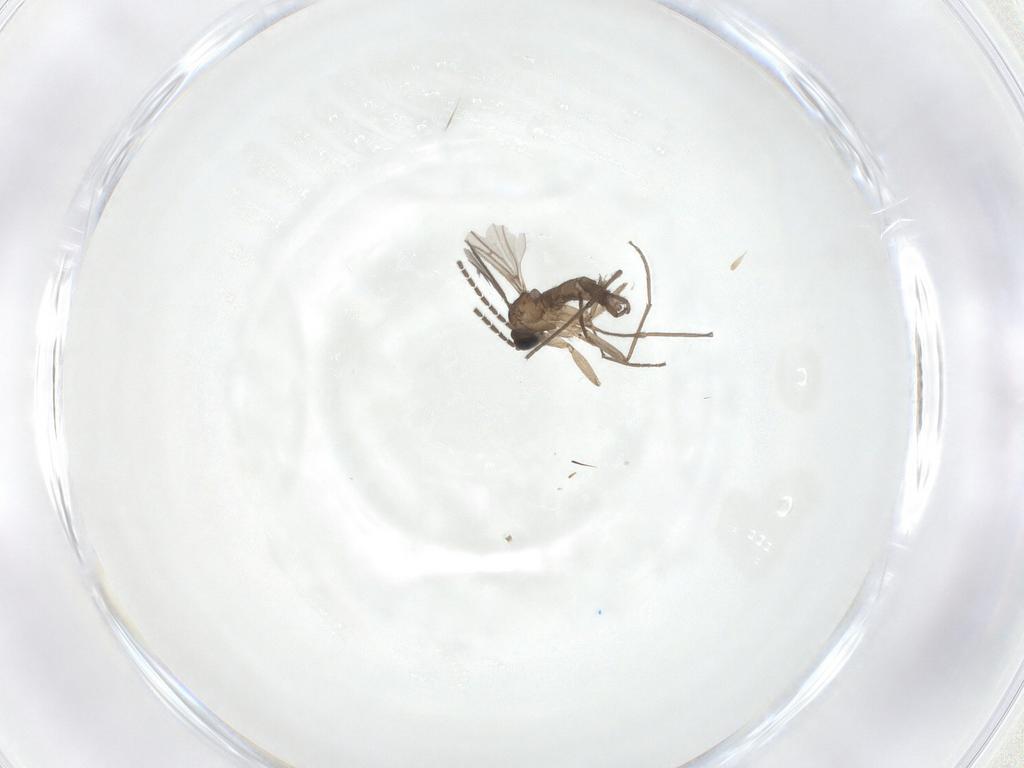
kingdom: Animalia
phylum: Arthropoda
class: Insecta
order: Diptera
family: Sciaridae
